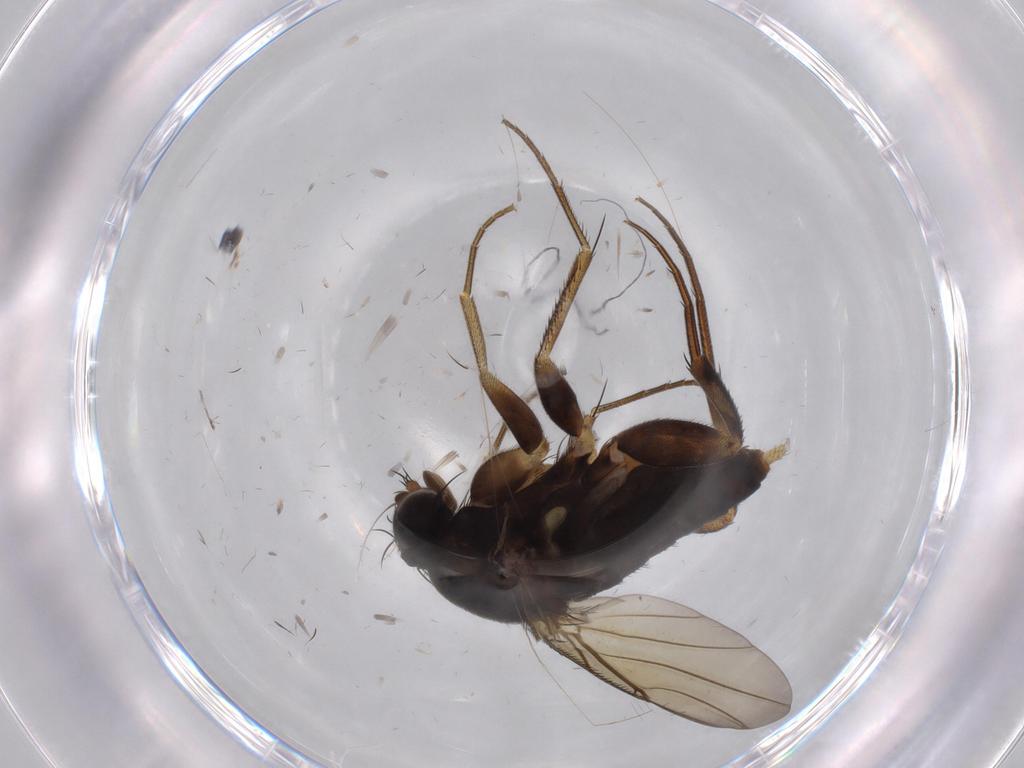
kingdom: Animalia
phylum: Arthropoda
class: Insecta
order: Diptera
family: Phoridae
